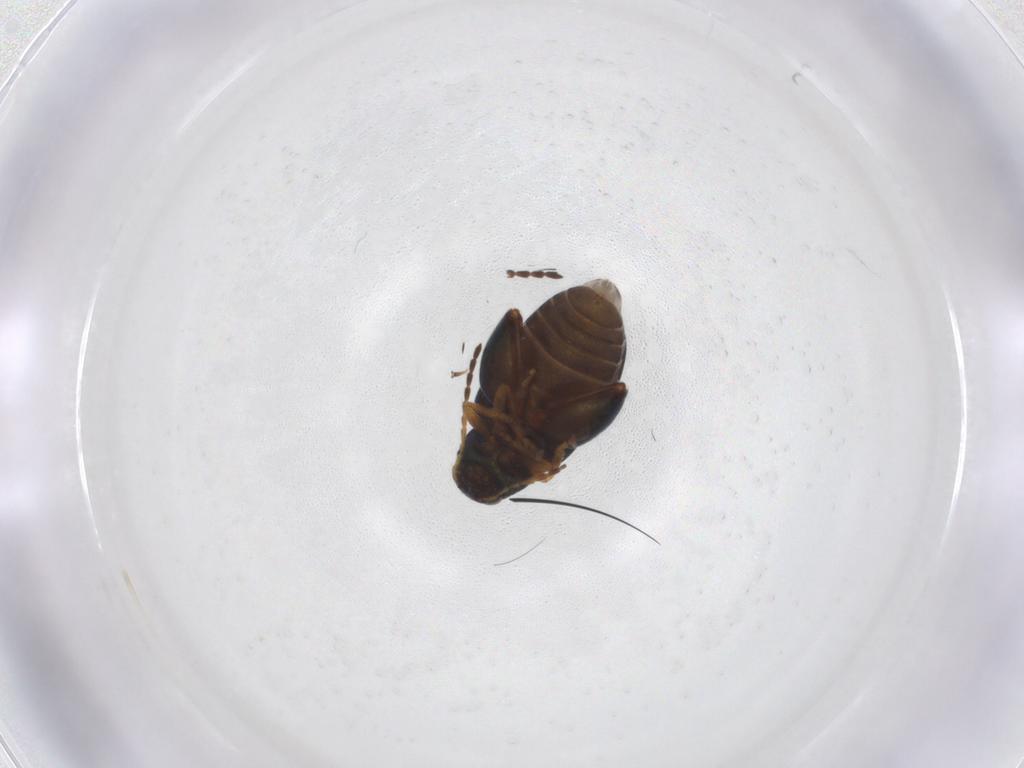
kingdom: Animalia
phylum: Arthropoda
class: Insecta
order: Coleoptera
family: Chrysomelidae
